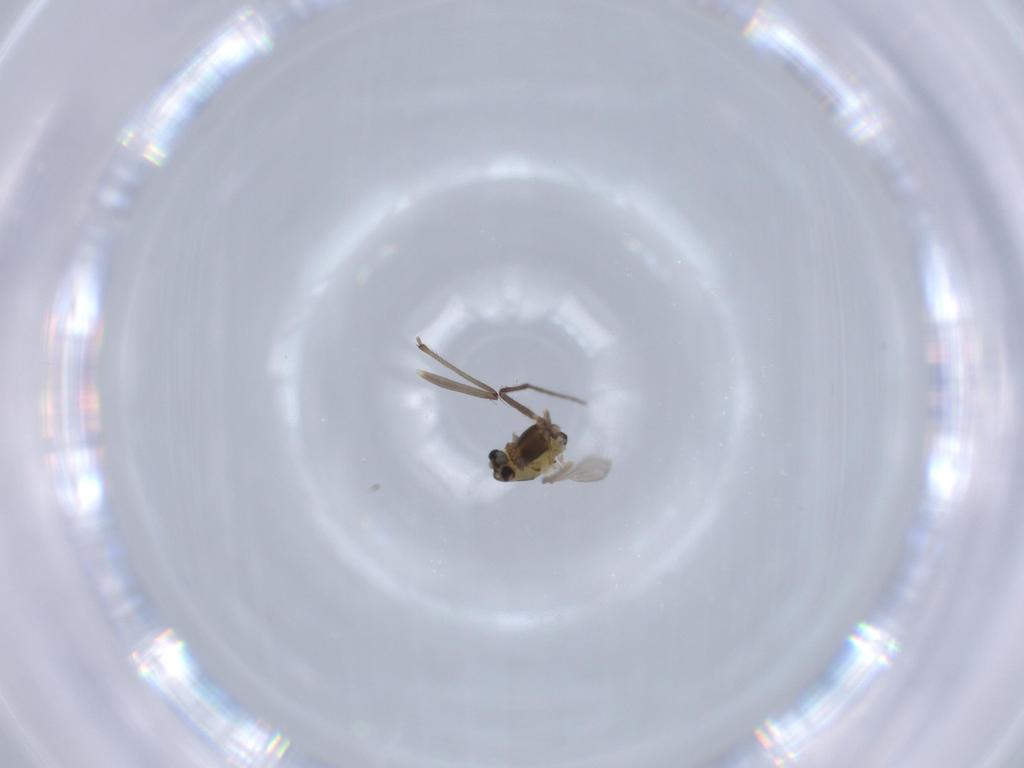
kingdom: Animalia
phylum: Arthropoda
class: Insecta
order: Diptera
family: Chironomidae
